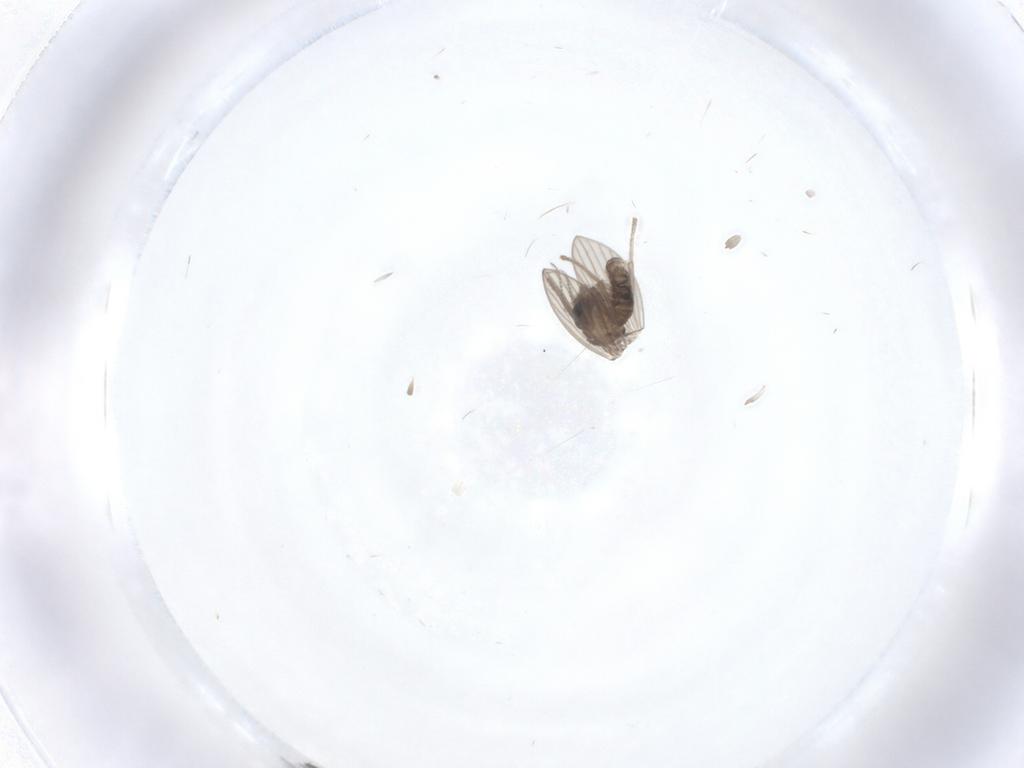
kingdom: Animalia
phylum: Arthropoda
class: Insecta
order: Diptera
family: Psychodidae
